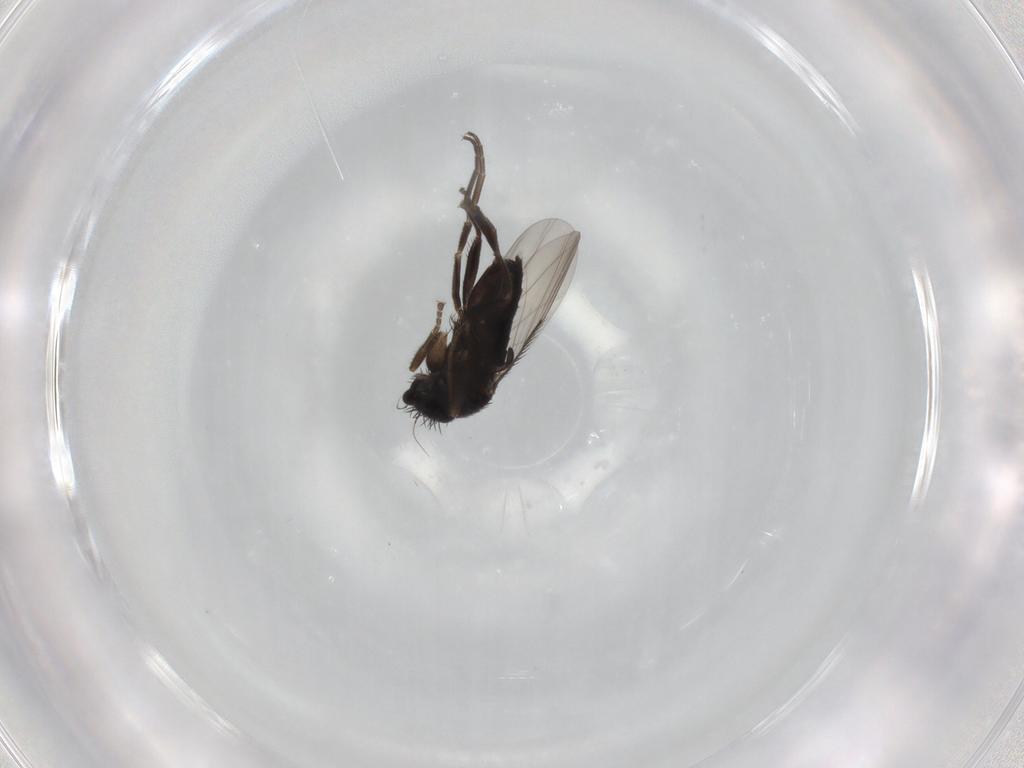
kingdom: Animalia
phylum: Arthropoda
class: Insecta
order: Diptera
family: Phoridae
